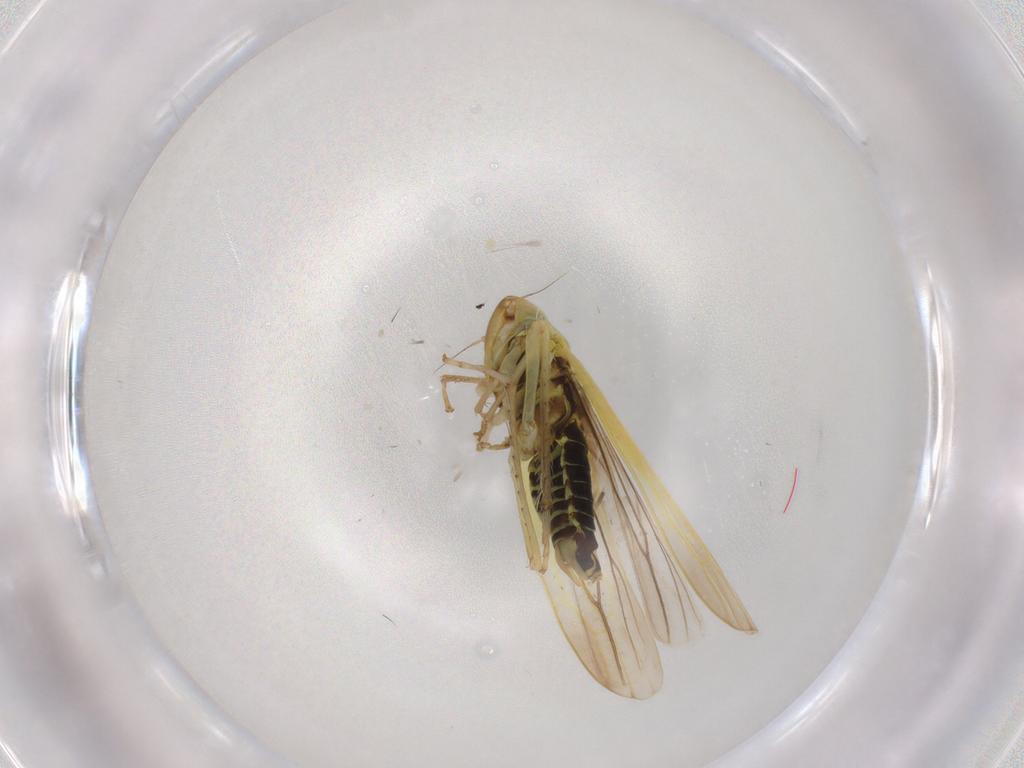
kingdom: Animalia
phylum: Arthropoda
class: Insecta
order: Hemiptera
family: Cicadellidae
